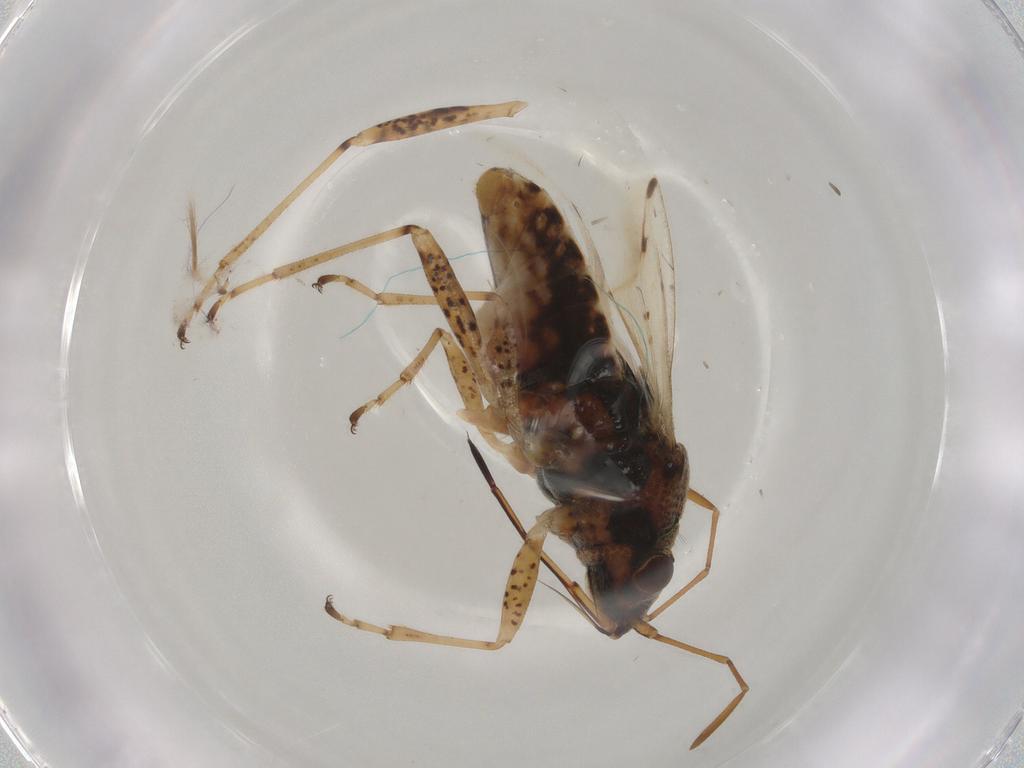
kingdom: Animalia
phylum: Arthropoda
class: Insecta
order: Hemiptera
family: Lygaeidae
